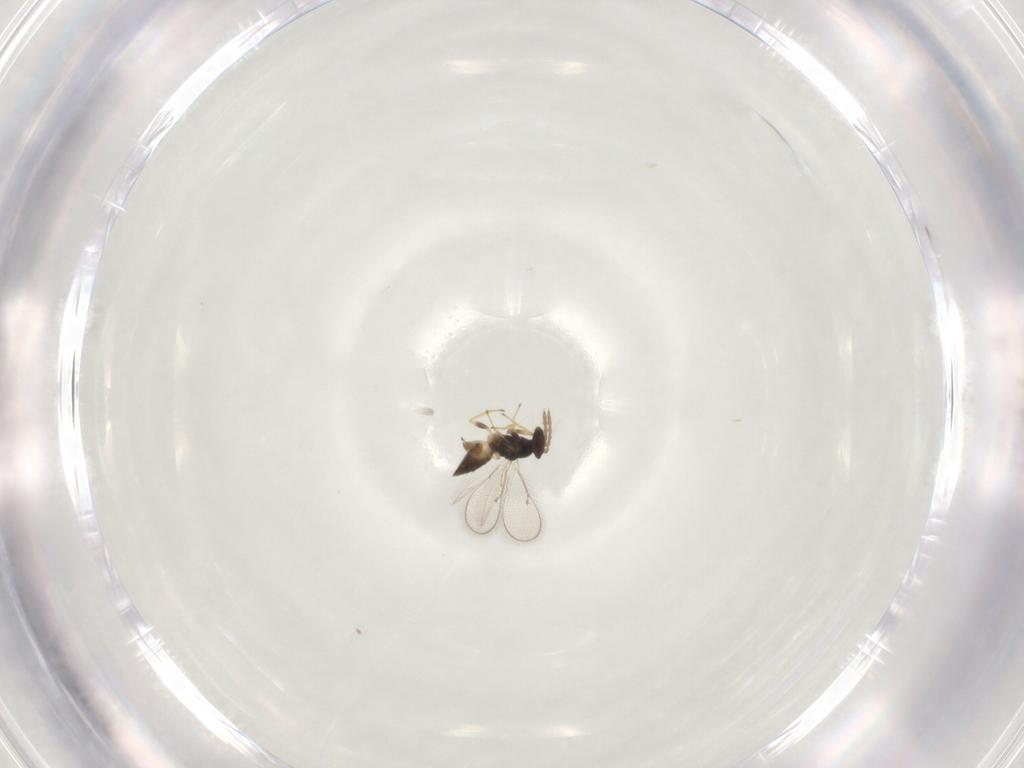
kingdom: Animalia
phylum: Arthropoda
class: Insecta
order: Hymenoptera
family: Eulophidae
